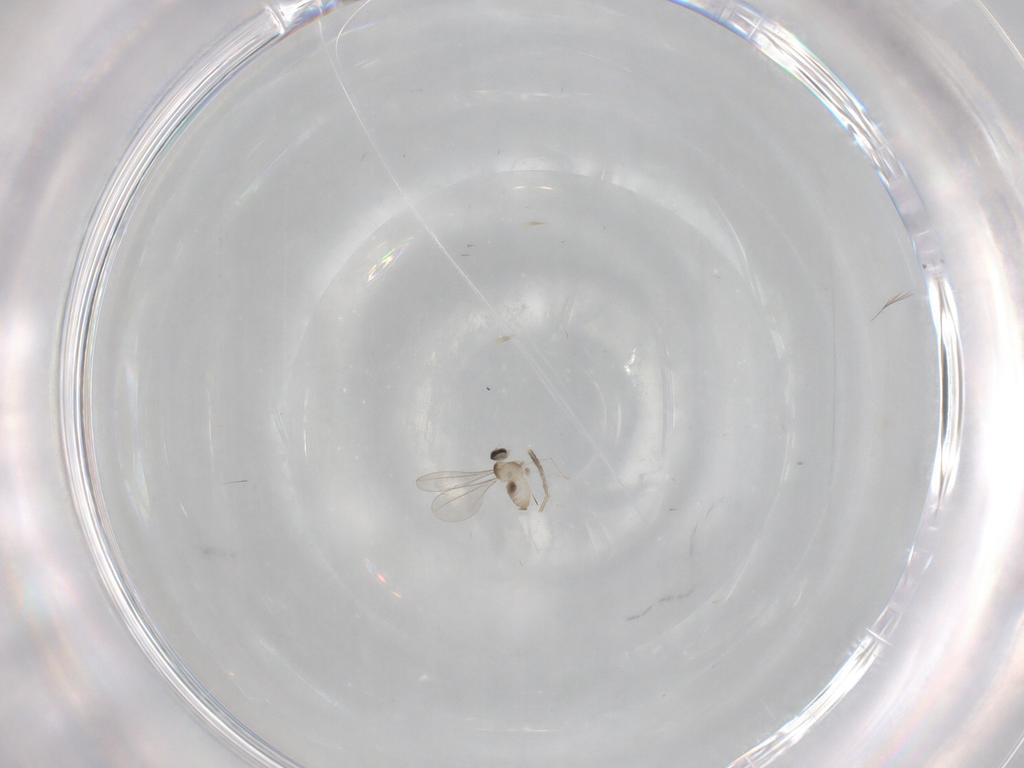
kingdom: Animalia
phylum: Arthropoda
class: Insecta
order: Diptera
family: Cecidomyiidae
